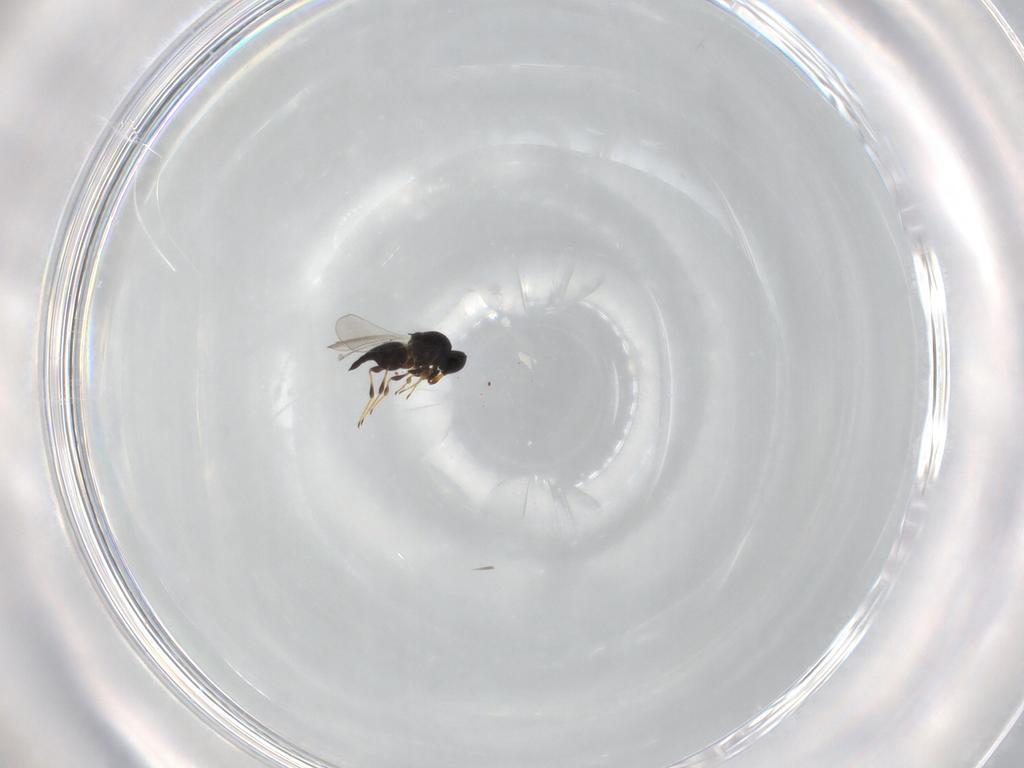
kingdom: Animalia
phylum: Arthropoda
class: Insecta
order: Hymenoptera
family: Platygastridae
